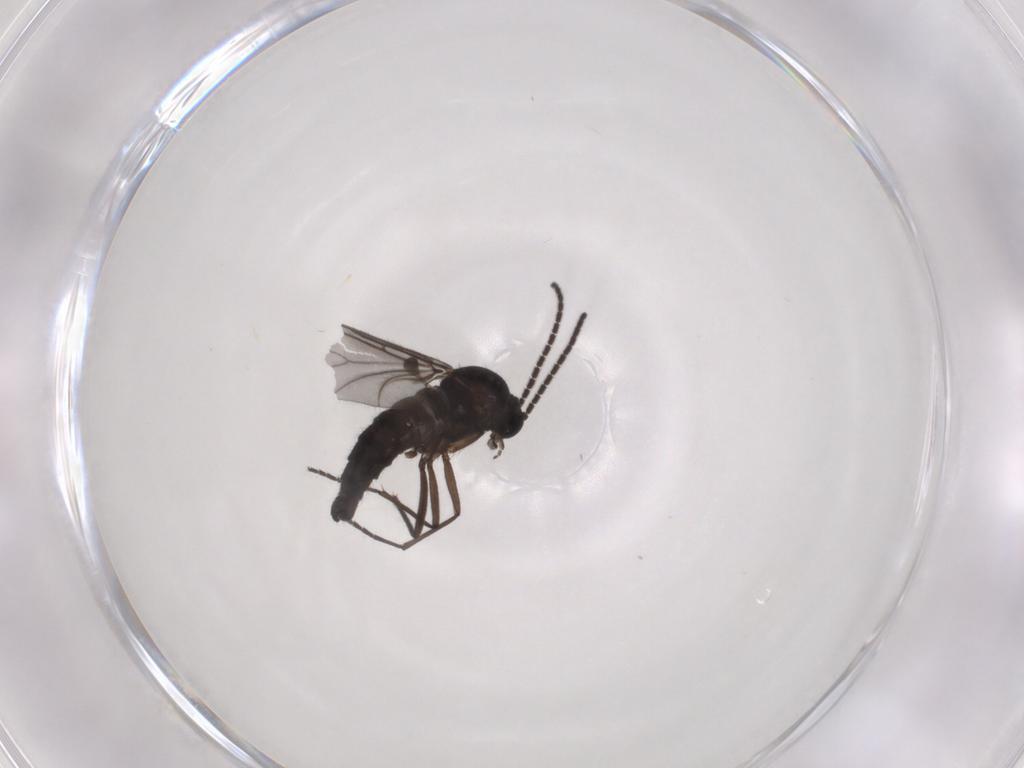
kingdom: Animalia
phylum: Arthropoda
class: Insecta
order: Diptera
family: Sciaridae
